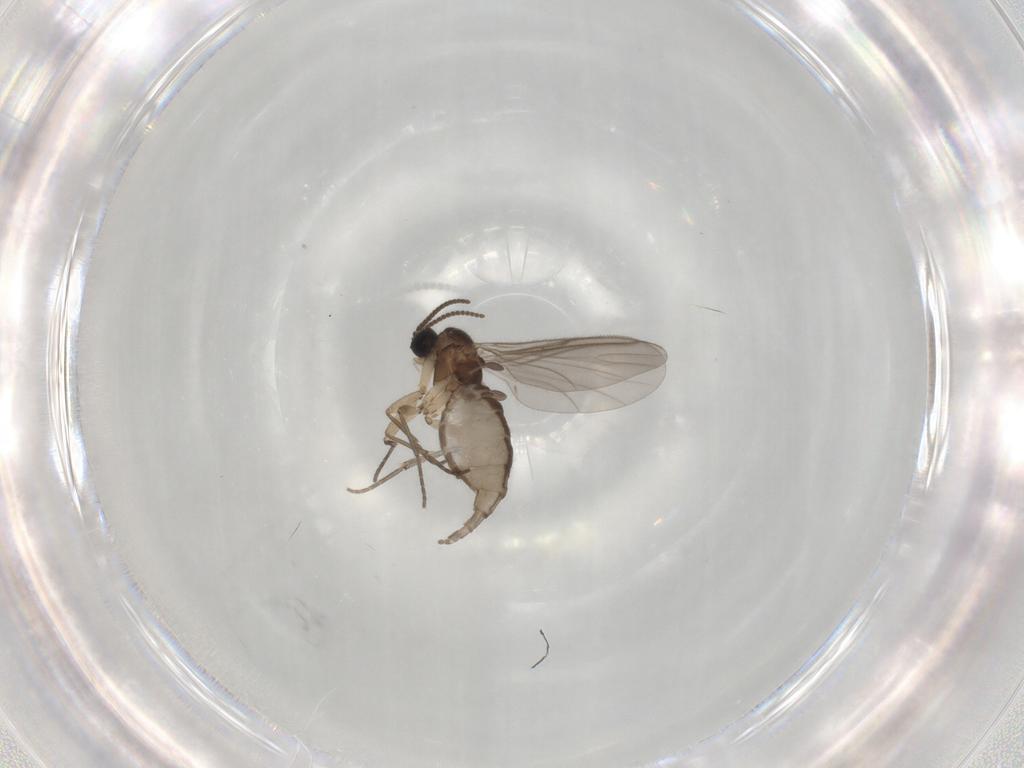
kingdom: Animalia
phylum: Arthropoda
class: Insecta
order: Diptera
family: Sciaridae
